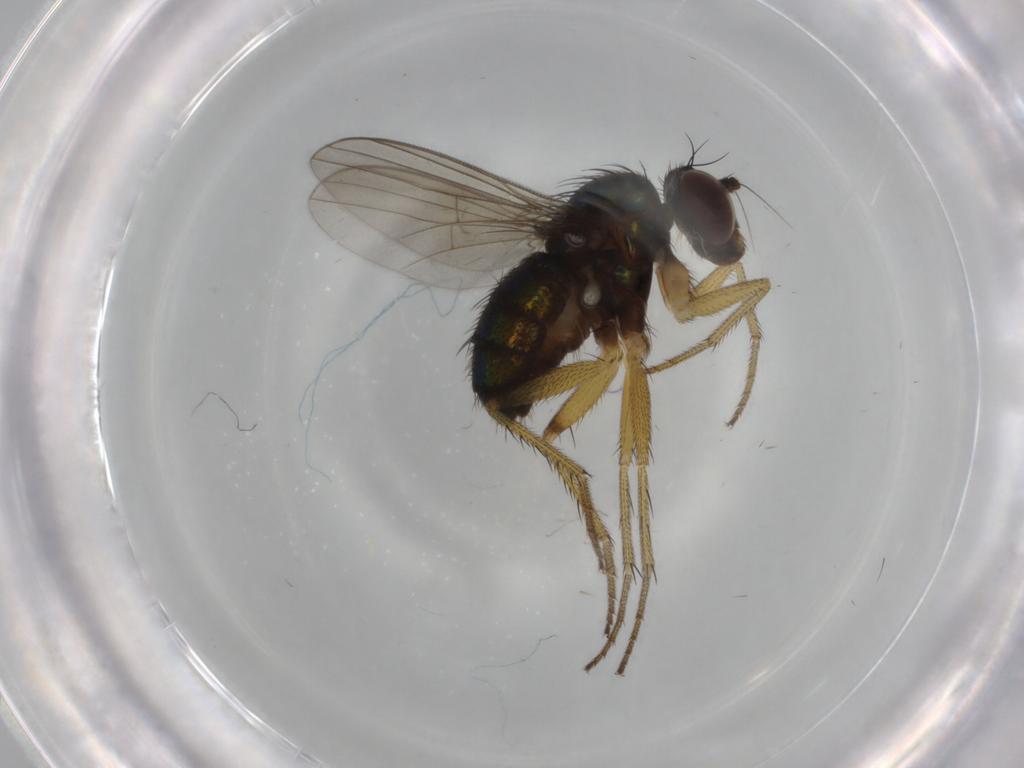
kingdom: Animalia
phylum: Arthropoda
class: Insecta
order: Diptera
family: Dolichopodidae
